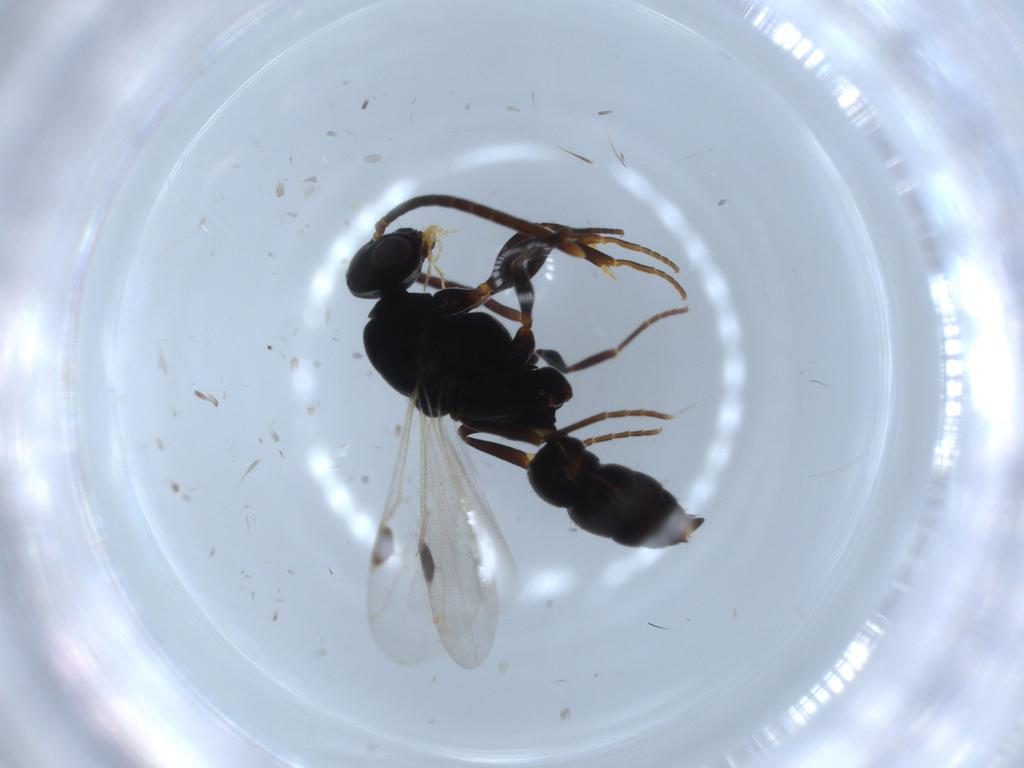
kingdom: Animalia
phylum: Arthropoda
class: Insecta
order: Hymenoptera
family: Formicidae
